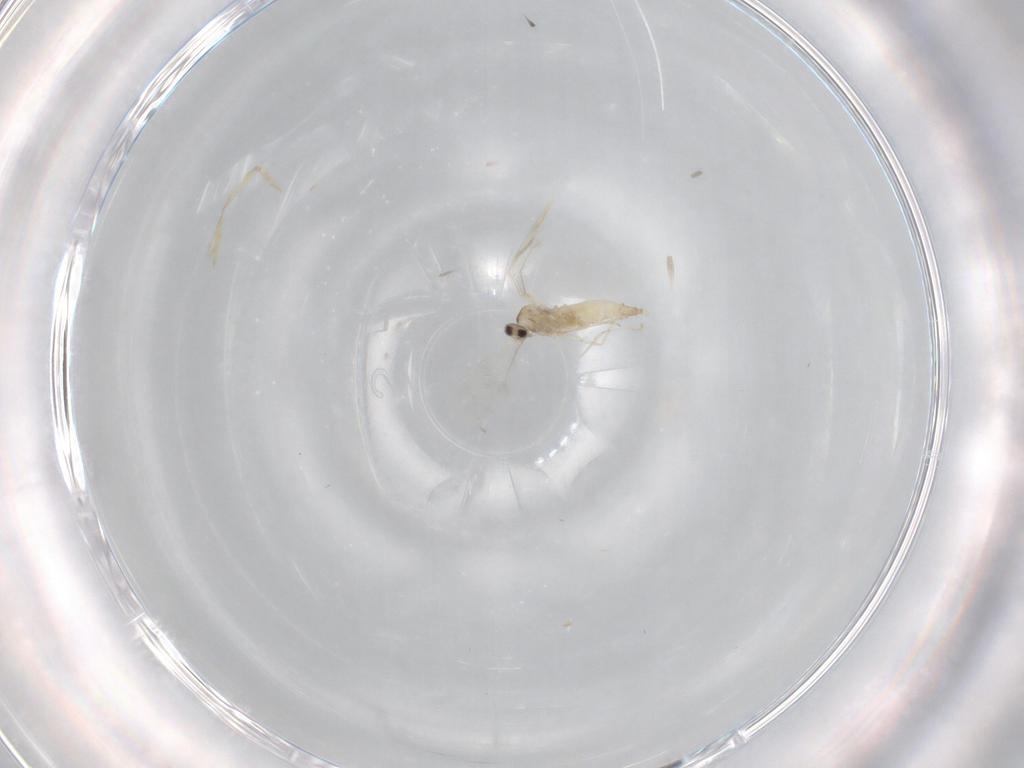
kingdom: Animalia
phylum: Arthropoda
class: Insecta
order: Diptera
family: Cecidomyiidae
